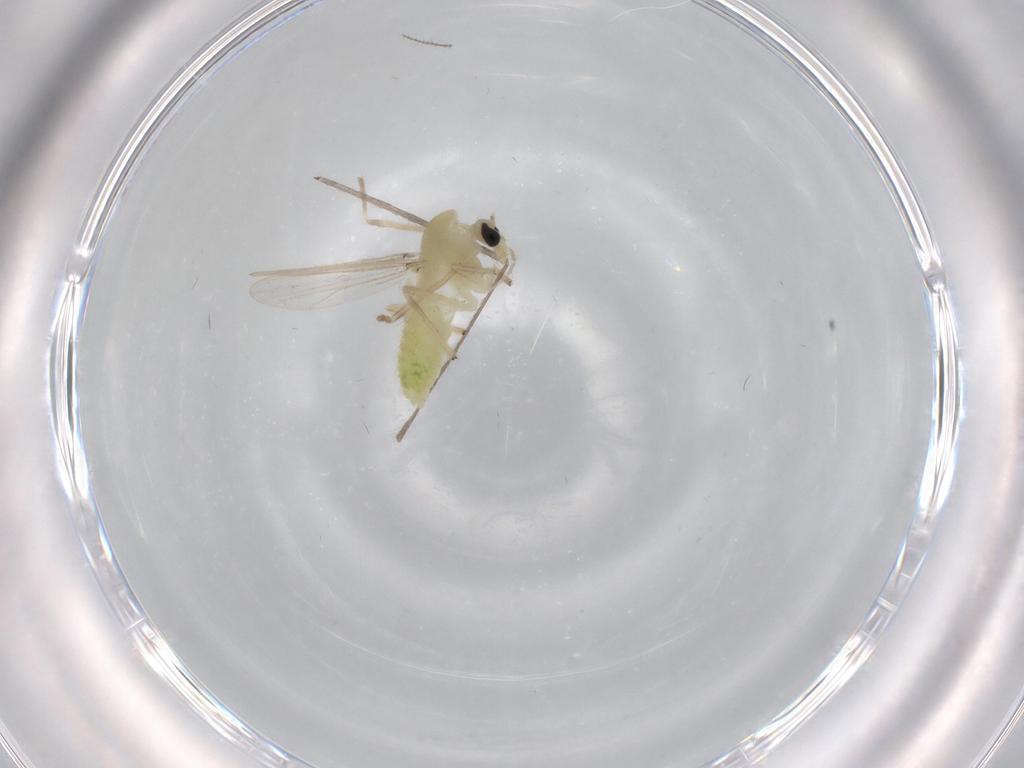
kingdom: Animalia
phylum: Arthropoda
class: Insecta
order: Diptera
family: Chironomidae
